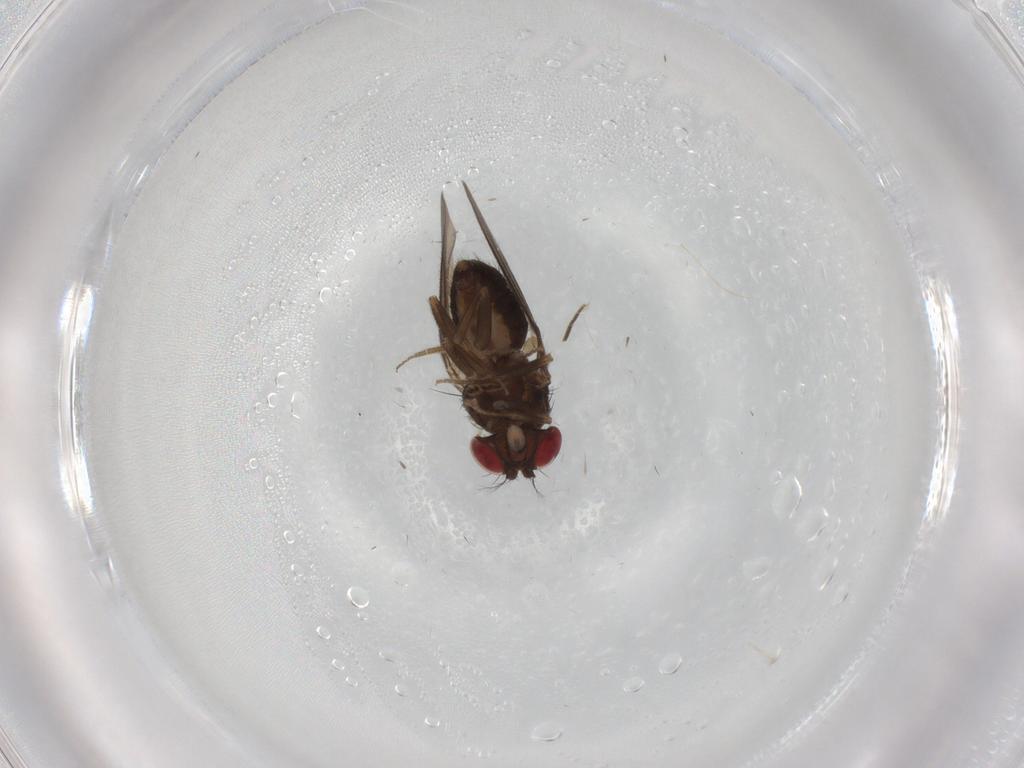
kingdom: Animalia
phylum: Arthropoda
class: Insecta
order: Diptera
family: Drosophilidae
